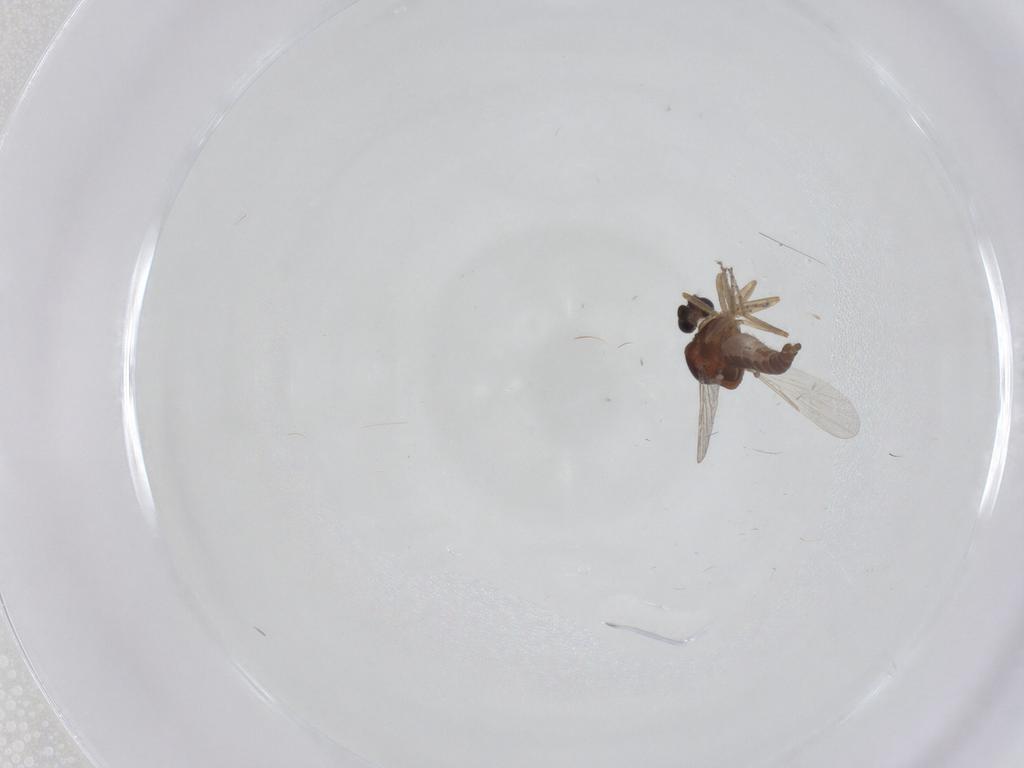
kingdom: Animalia
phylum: Arthropoda
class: Insecta
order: Diptera
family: Ceratopogonidae
